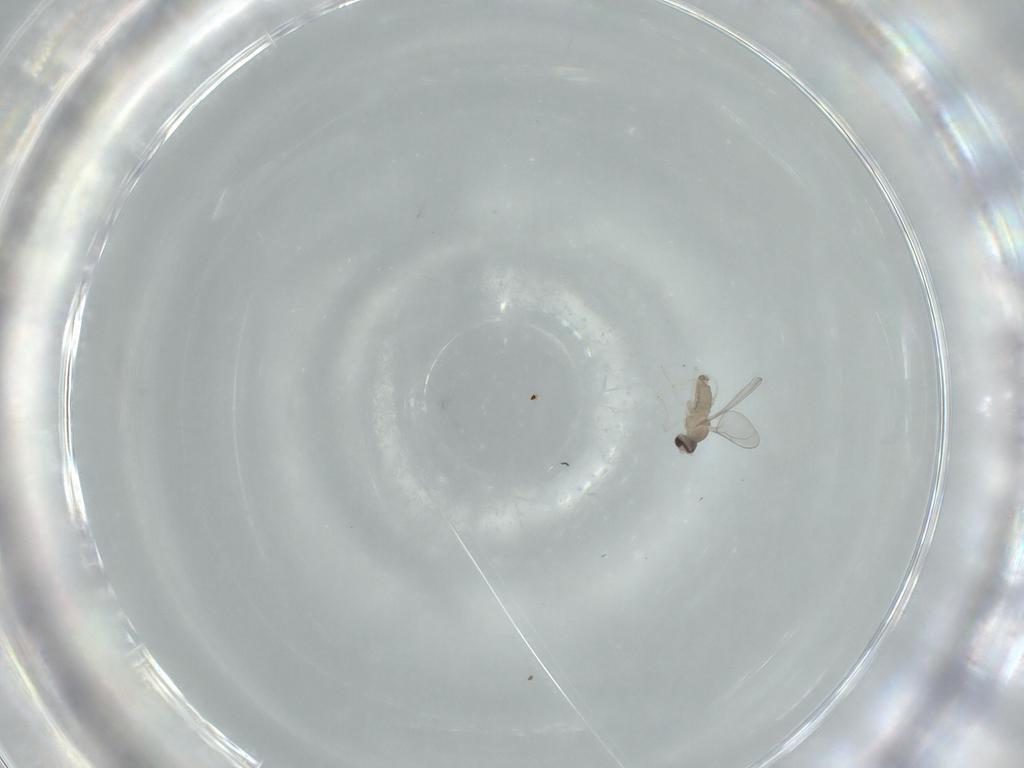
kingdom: Animalia
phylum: Arthropoda
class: Insecta
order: Diptera
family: Cecidomyiidae
